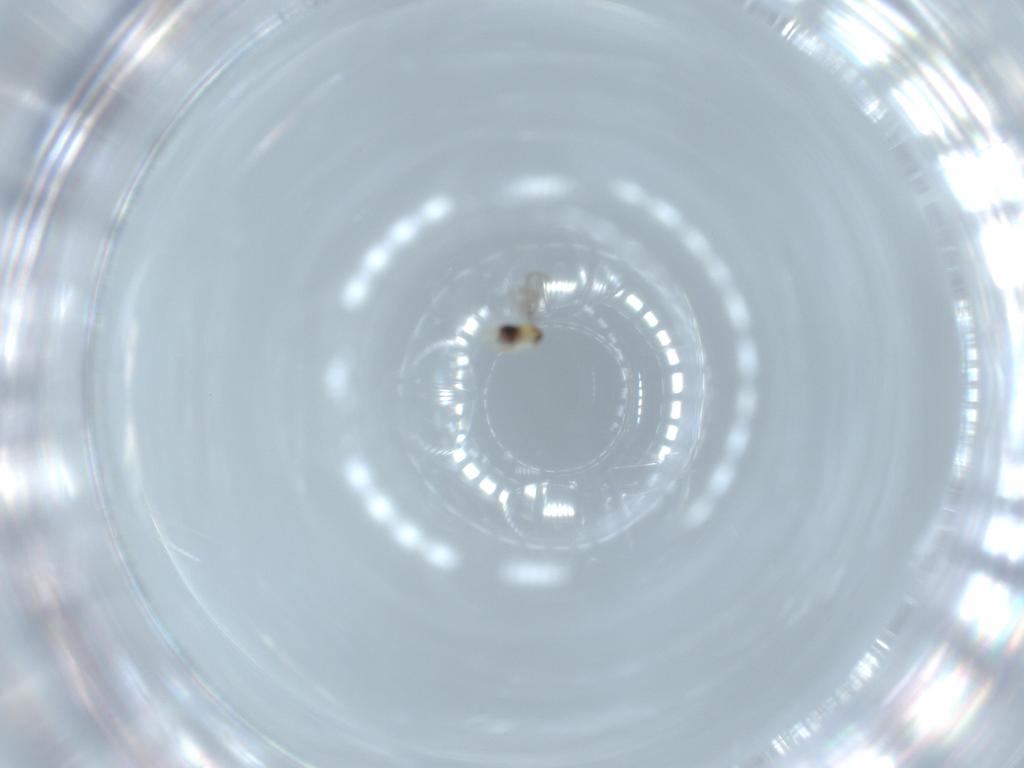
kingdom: Animalia
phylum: Arthropoda
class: Insecta
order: Hymenoptera
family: Aphelinidae
